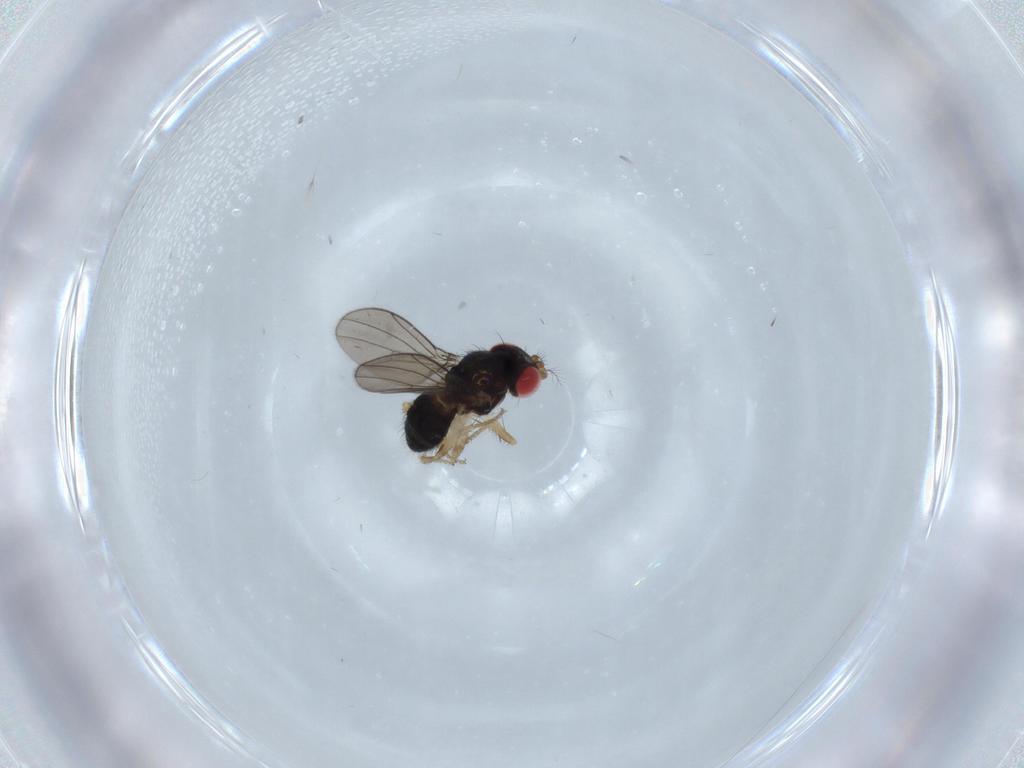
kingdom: Animalia
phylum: Arthropoda
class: Insecta
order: Diptera
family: Drosophilidae
